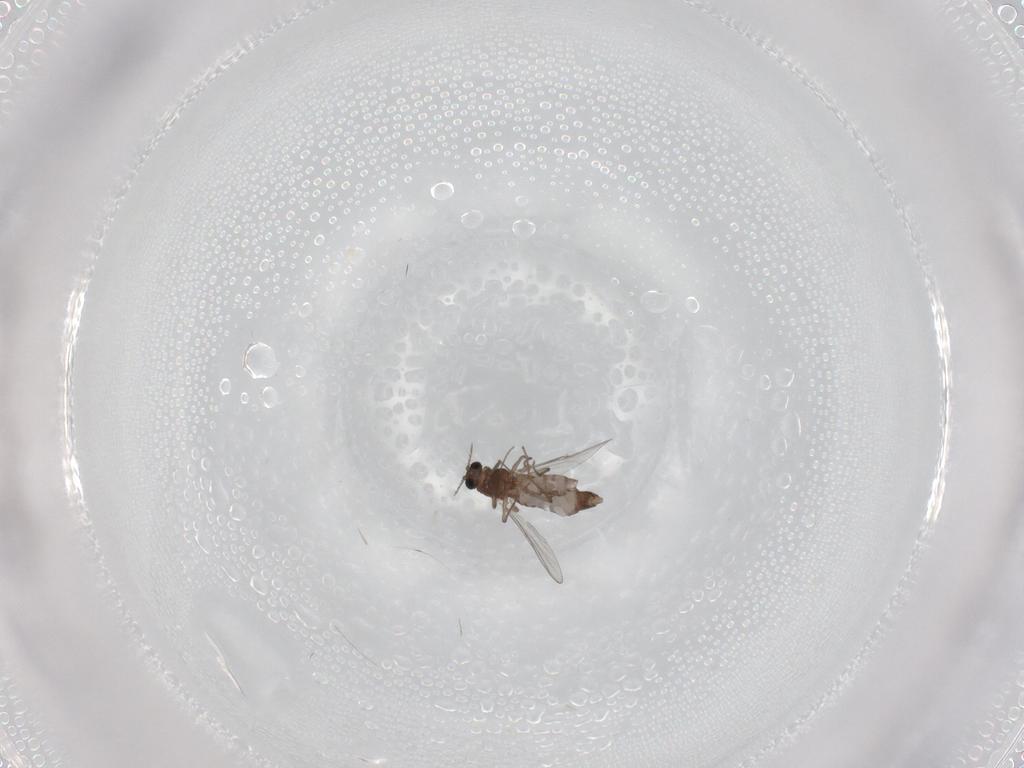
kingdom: Animalia
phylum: Arthropoda
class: Insecta
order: Diptera
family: Chironomidae
